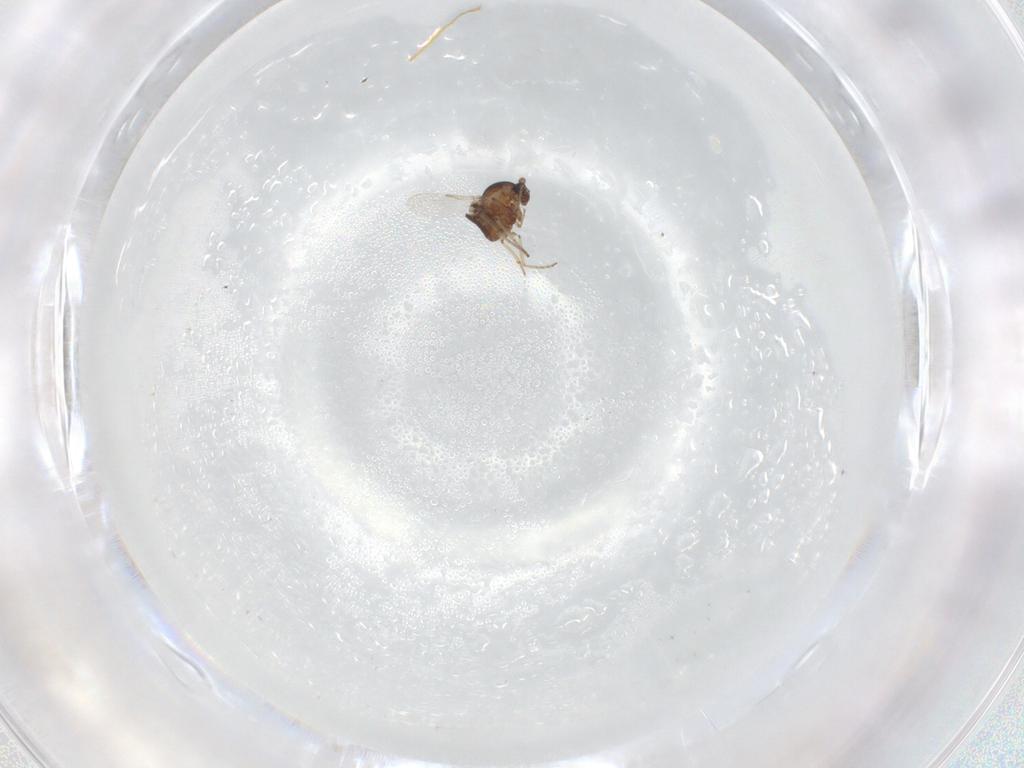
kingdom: Animalia
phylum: Arthropoda
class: Insecta
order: Diptera
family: Ceratopogonidae
